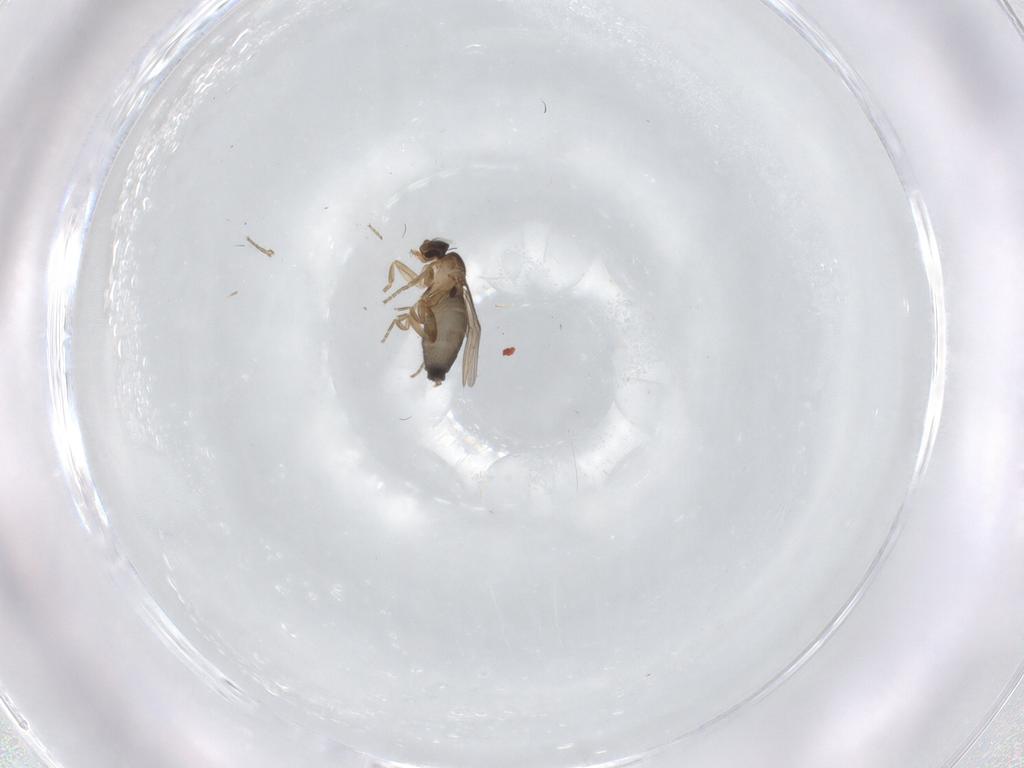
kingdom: Animalia
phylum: Arthropoda
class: Insecta
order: Diptera
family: Phoridae
